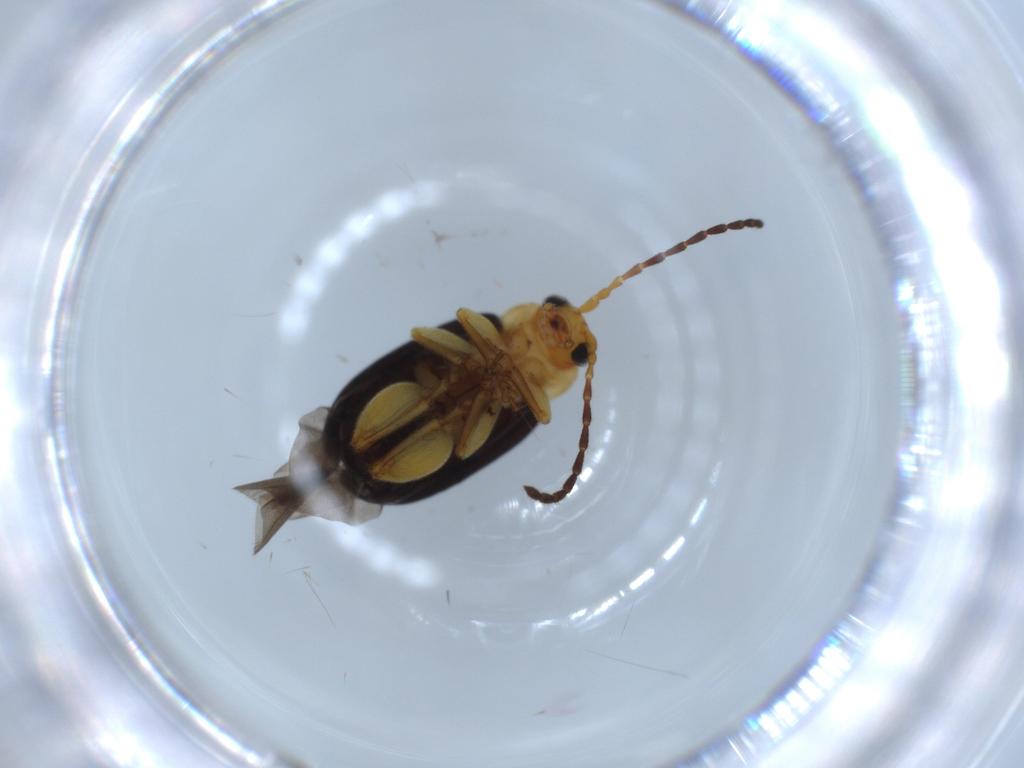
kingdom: Animalia
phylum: Arthropoda
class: Insecta
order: Coleoptera
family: Chrysomelidae
